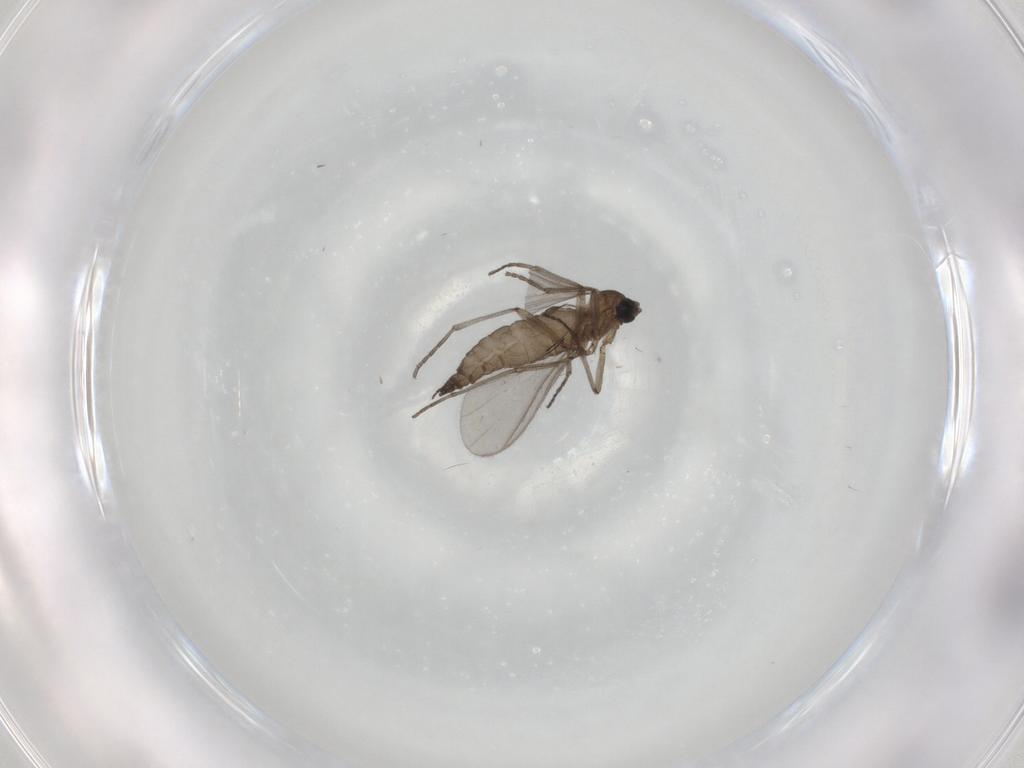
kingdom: Animalia
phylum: Arthropoda
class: Insecta
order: Diptera
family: Sciaridae
